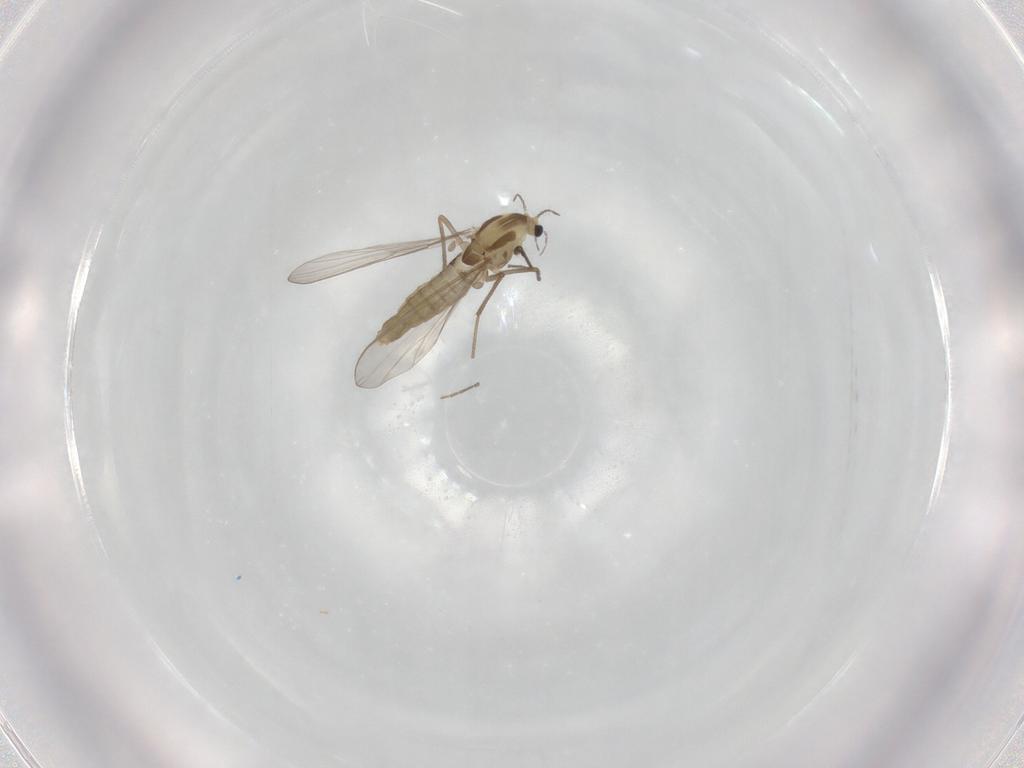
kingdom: Animalia
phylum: Arthropoda
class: Insecta
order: Diptera
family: Chironomidae
